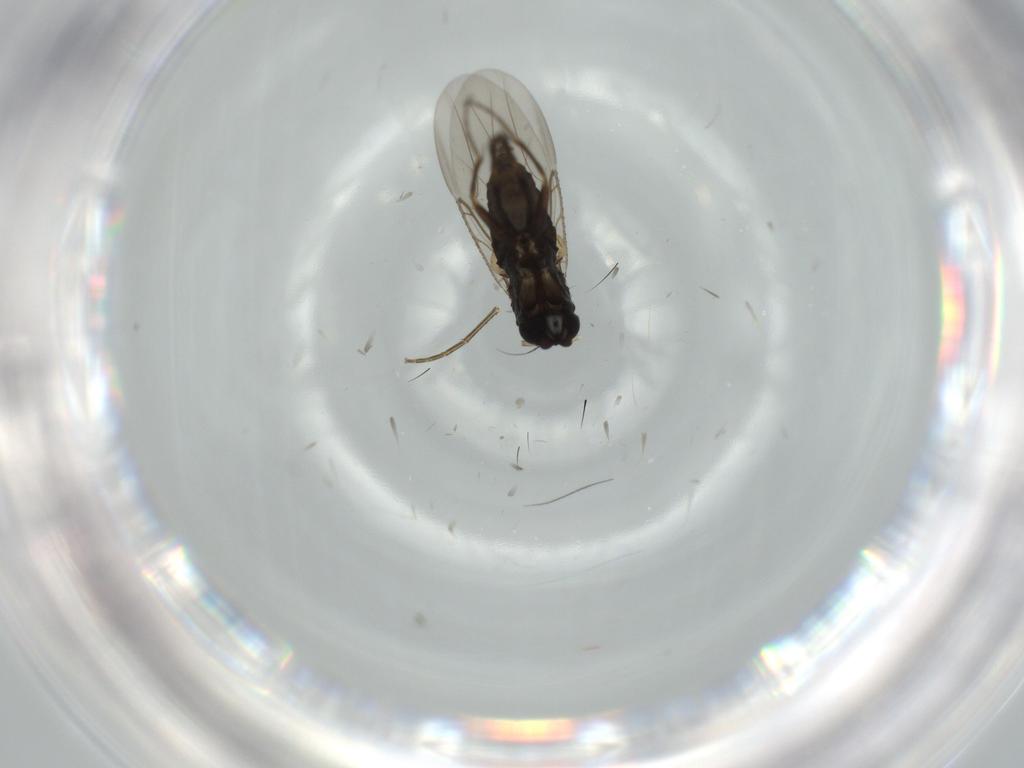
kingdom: Animalia
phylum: Arthropoda
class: Insecta
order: Diptera
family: Phoridae
